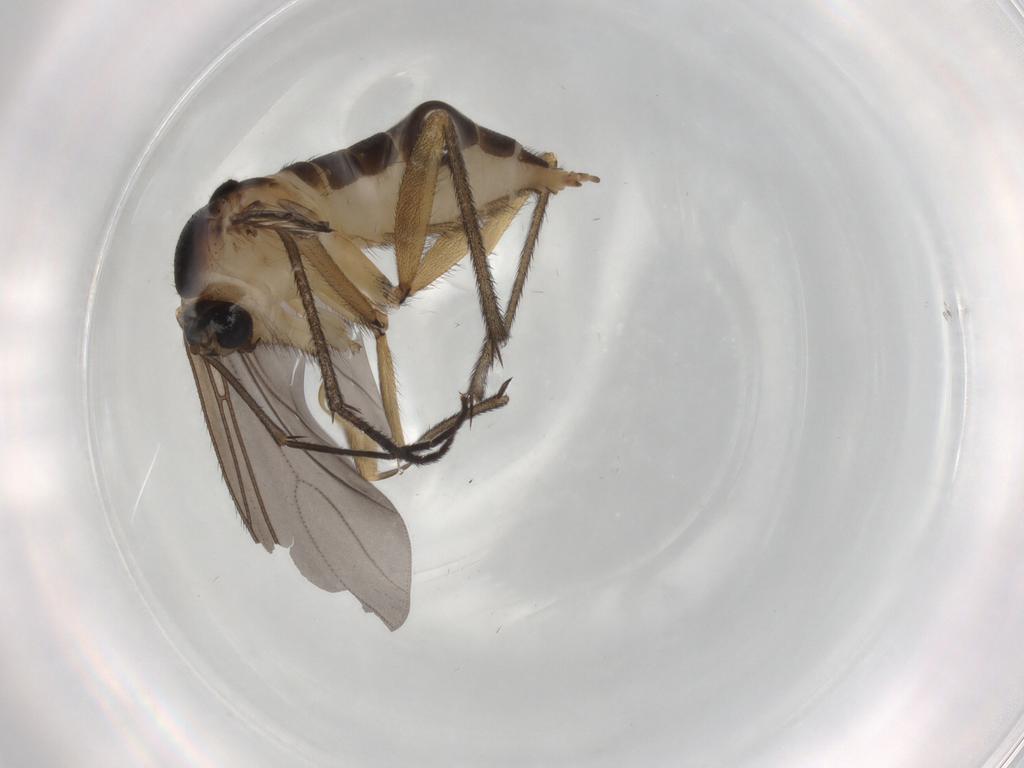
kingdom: Animalia
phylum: Arthropoda
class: Insecta
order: Diptera
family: Sciaridae
